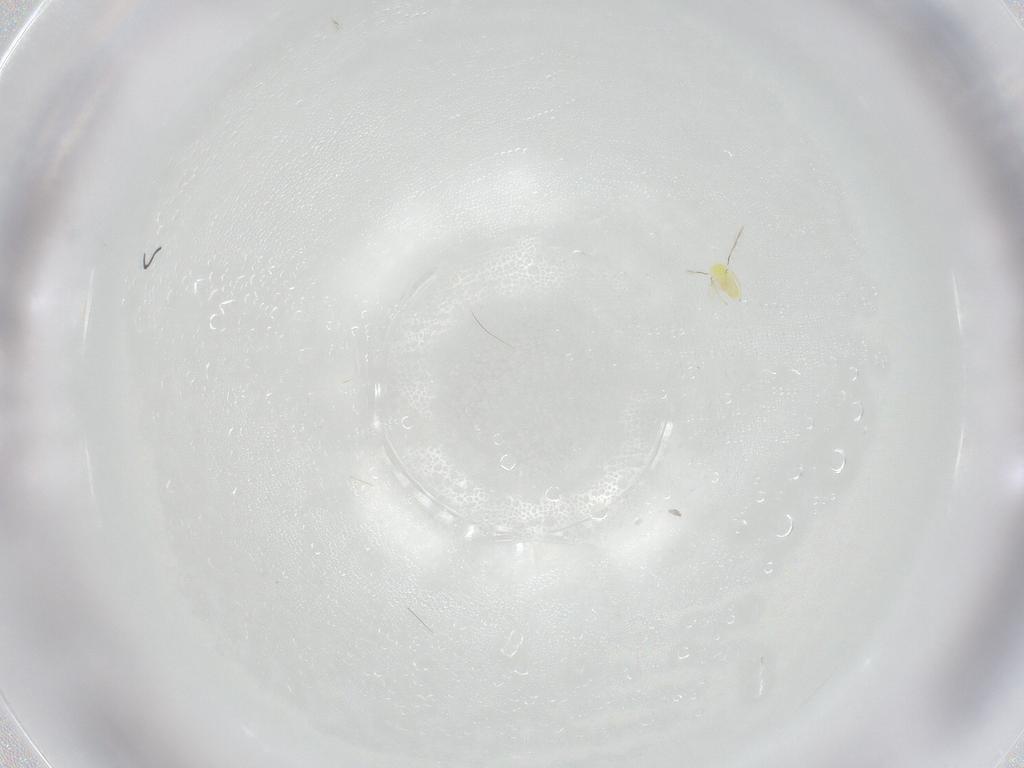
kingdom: Animalia
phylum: Arthropoda
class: Insecta
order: Hymenoptera
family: Trichogrammatidae
